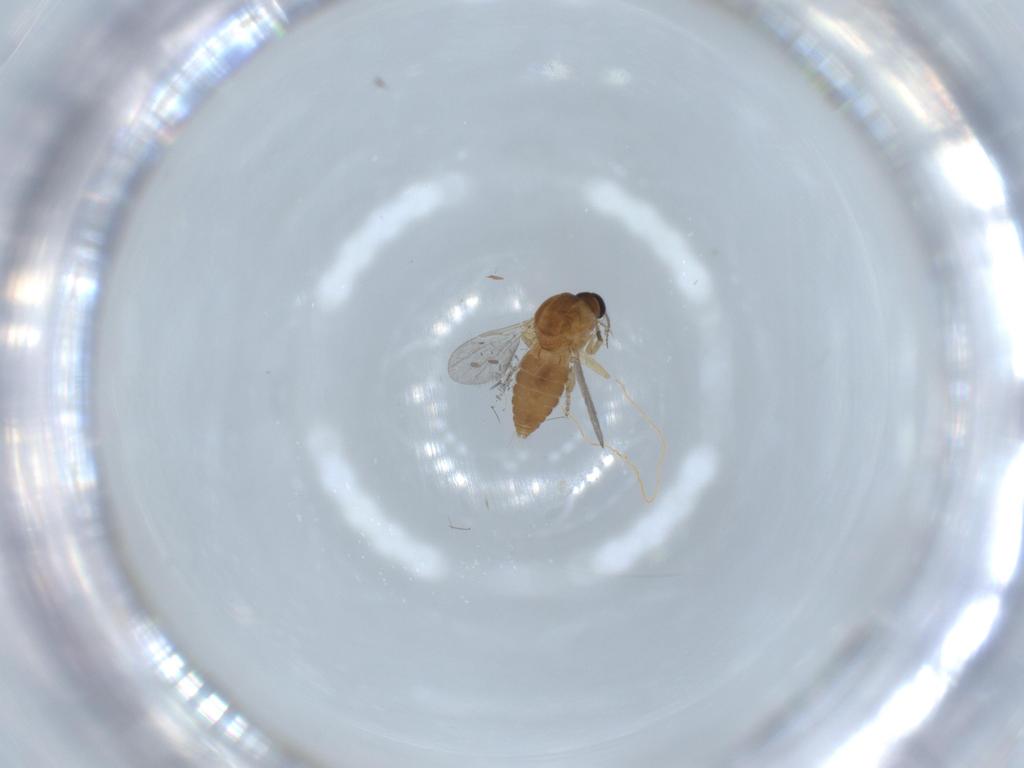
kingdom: Animalia
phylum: Arthropoda
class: Insecta
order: Diptera
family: Ceratopogonidae
